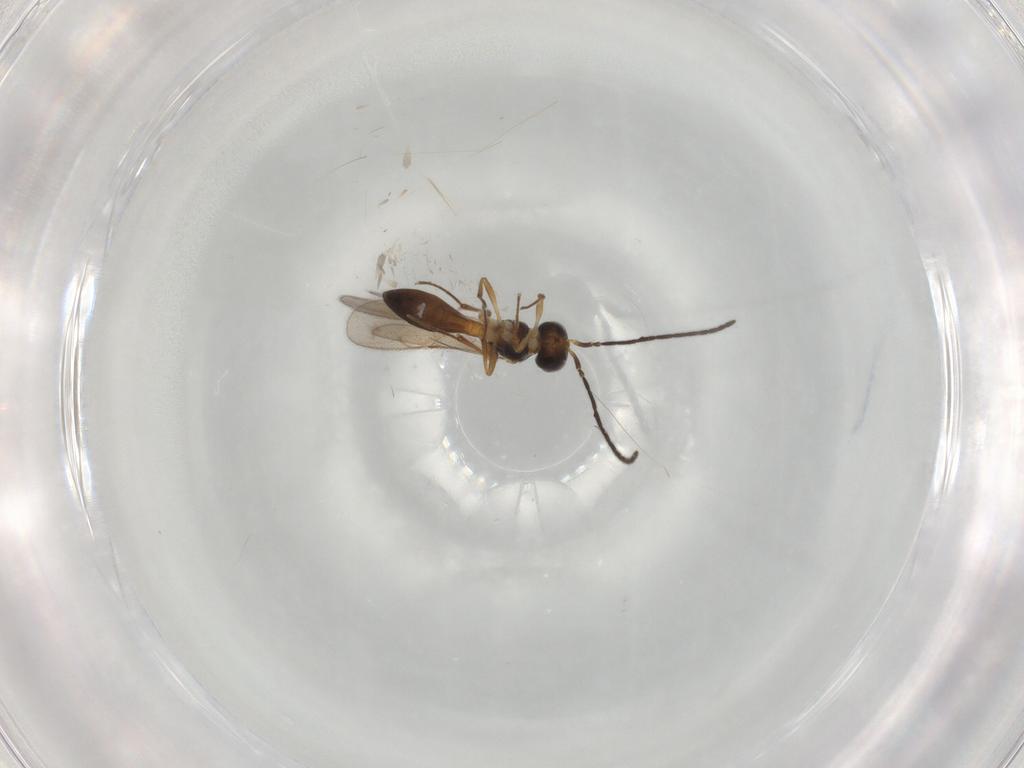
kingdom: Animalia
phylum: Arthropoda
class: Insecta
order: Hymenoptera
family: Scelionidae
